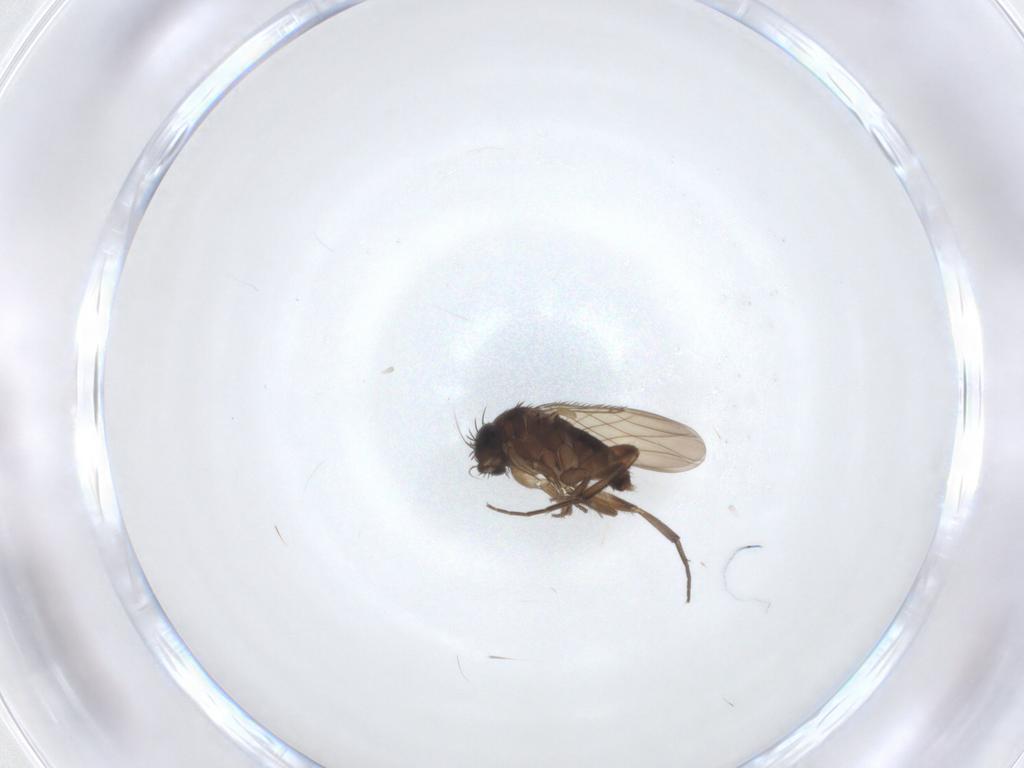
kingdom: Animalia
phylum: Arthropoda
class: Insecta
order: Diptera
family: Phoridae
